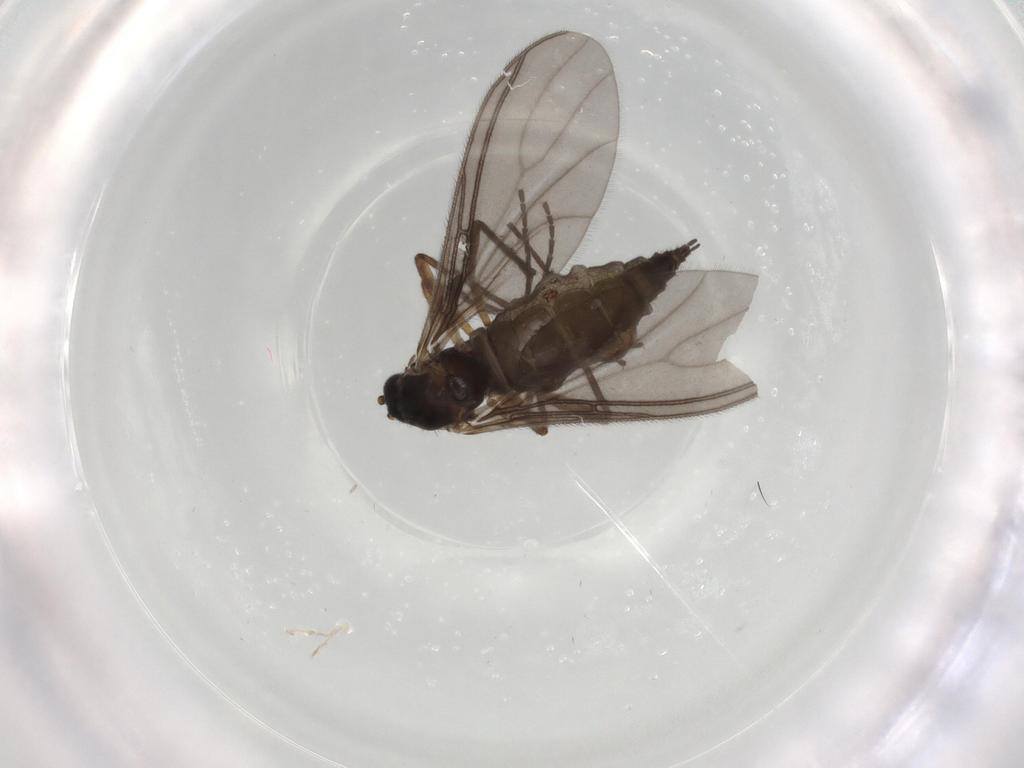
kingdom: Animalia
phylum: Arthropoda
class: Insecta
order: Diptera
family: Sciaridae
